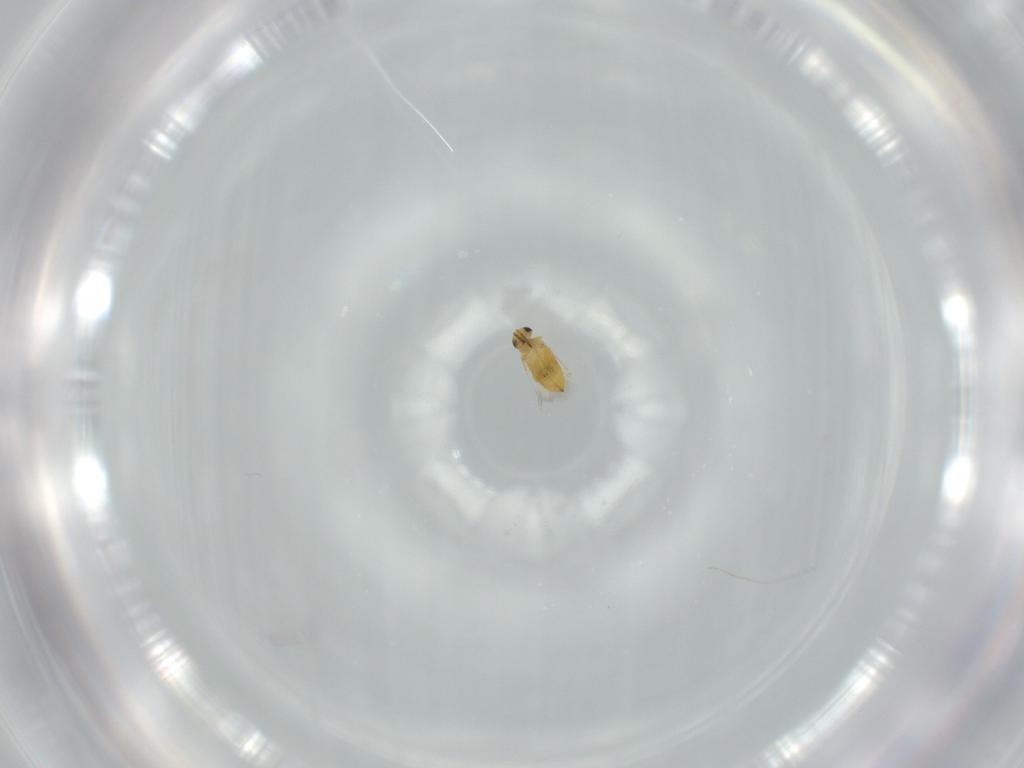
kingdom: Animalia
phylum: Arthropoda
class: Insecta
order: Hymenoptera
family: Signiphoridae
